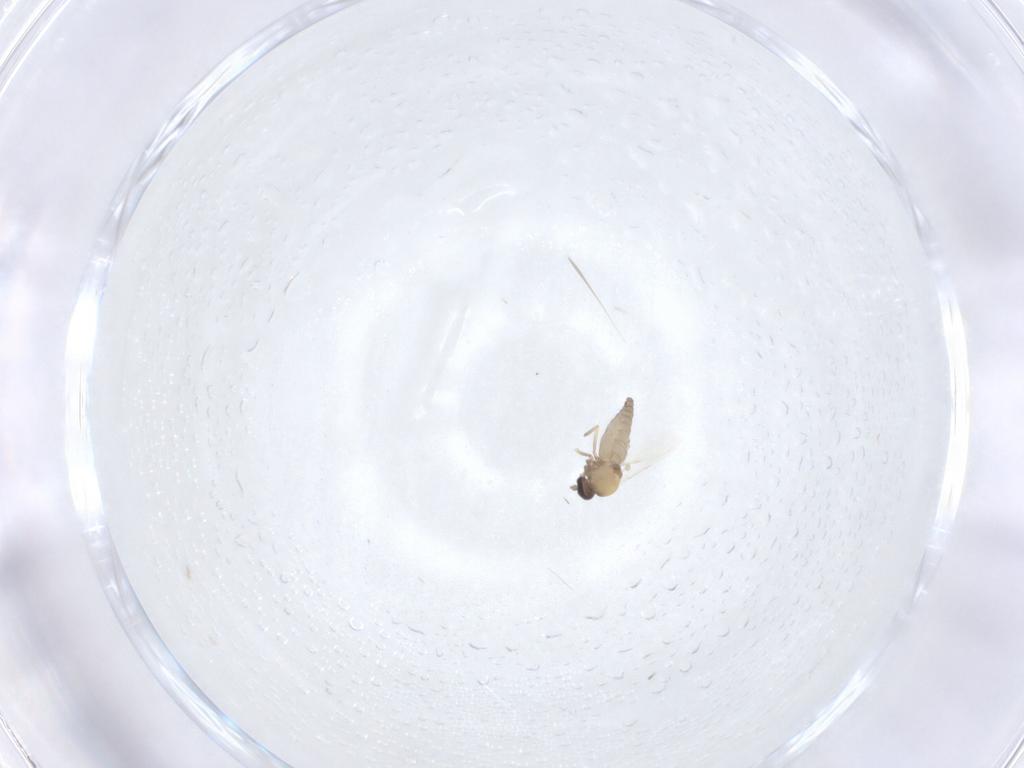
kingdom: Animalia
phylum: Arthropoda
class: Insecta
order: Diptera
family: Ceratopogonidae
